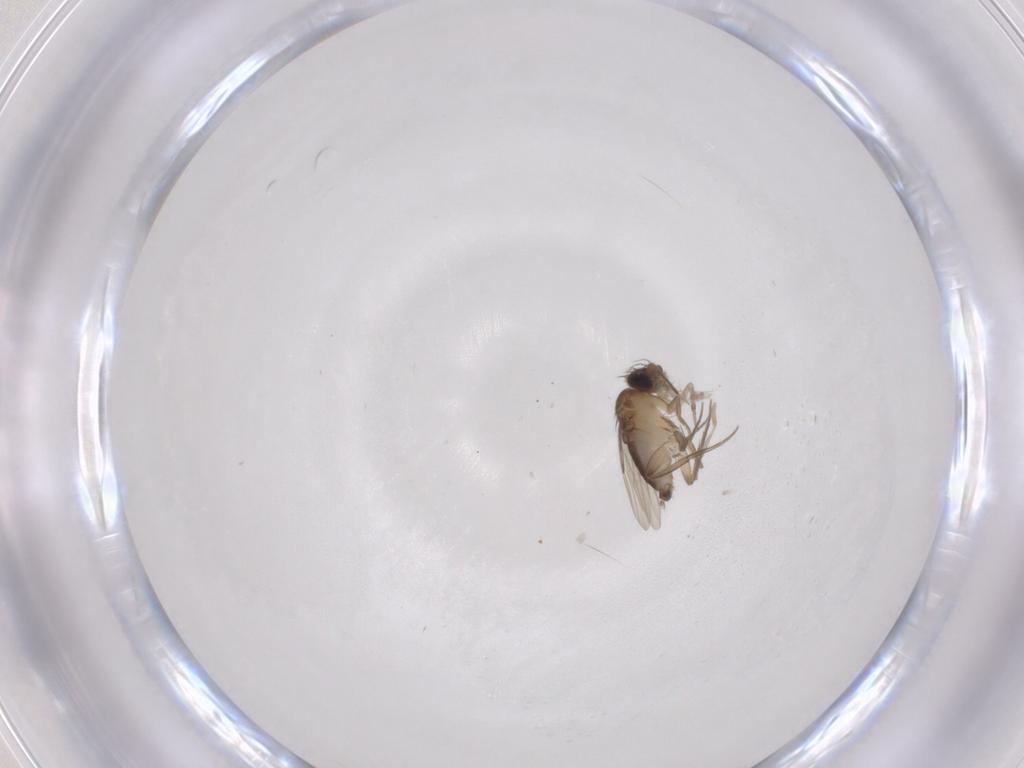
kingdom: Animalia
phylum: Arthropoda
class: Insecta
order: Diptera
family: Phoridae
